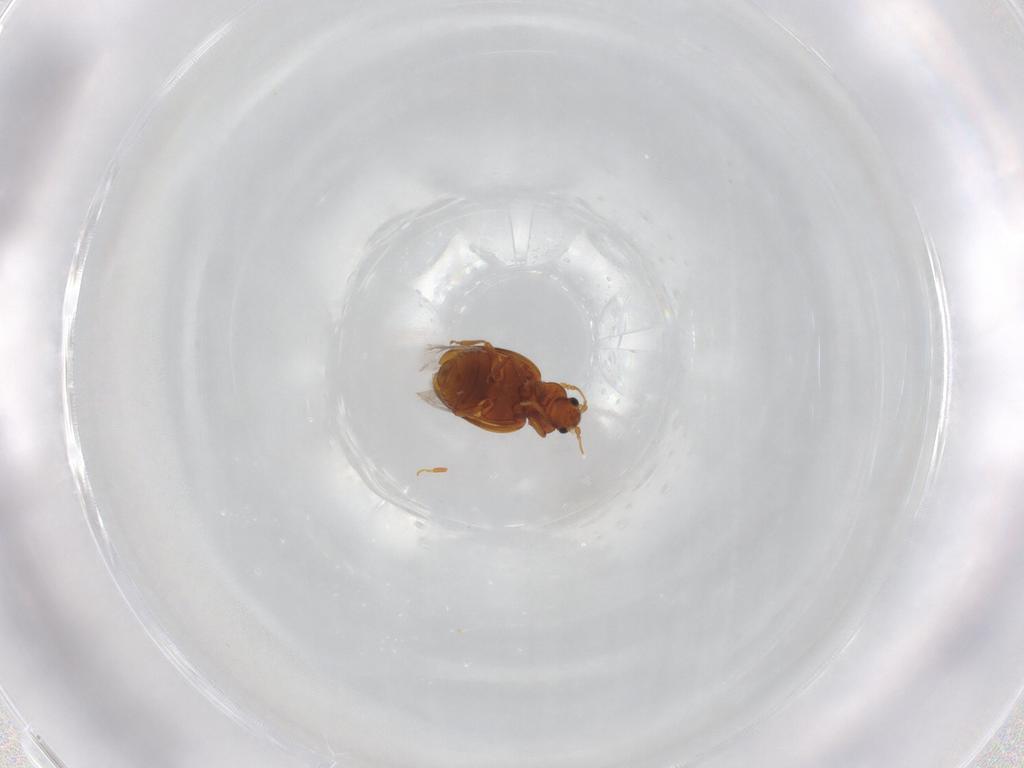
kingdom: Animalia
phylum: Arthropoda
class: Insecta
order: Coleoptera
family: Latridiidae
